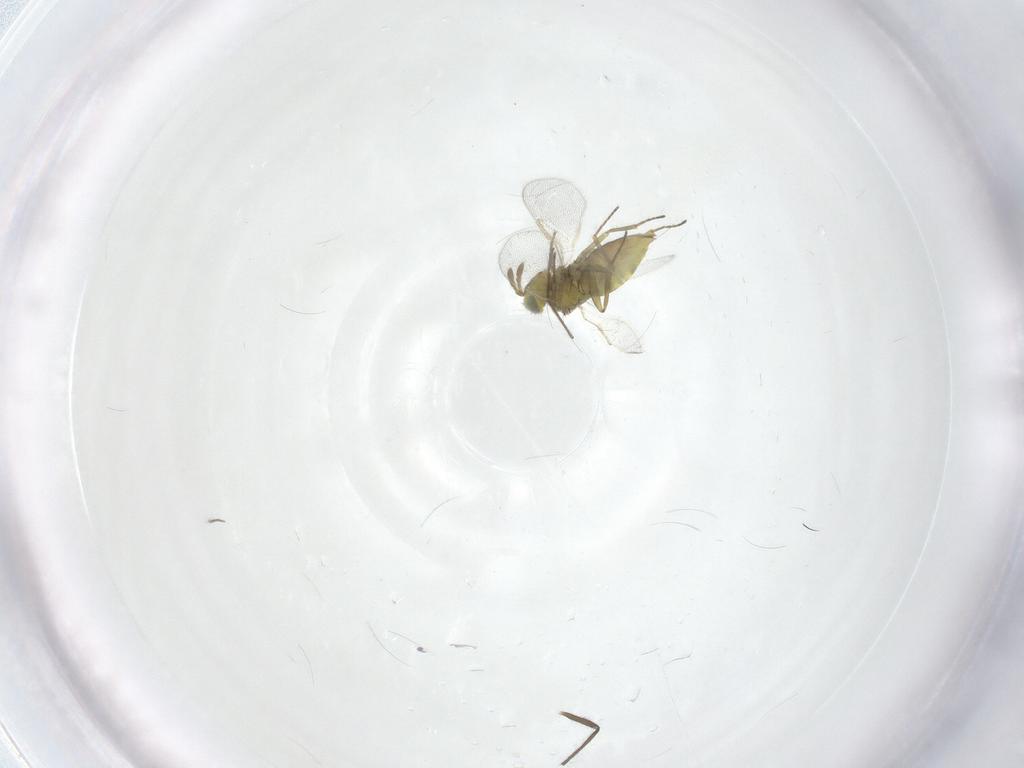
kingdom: Animalia
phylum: Arthropoda
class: Insecta
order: Hymenoptera
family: Aphelinidae
